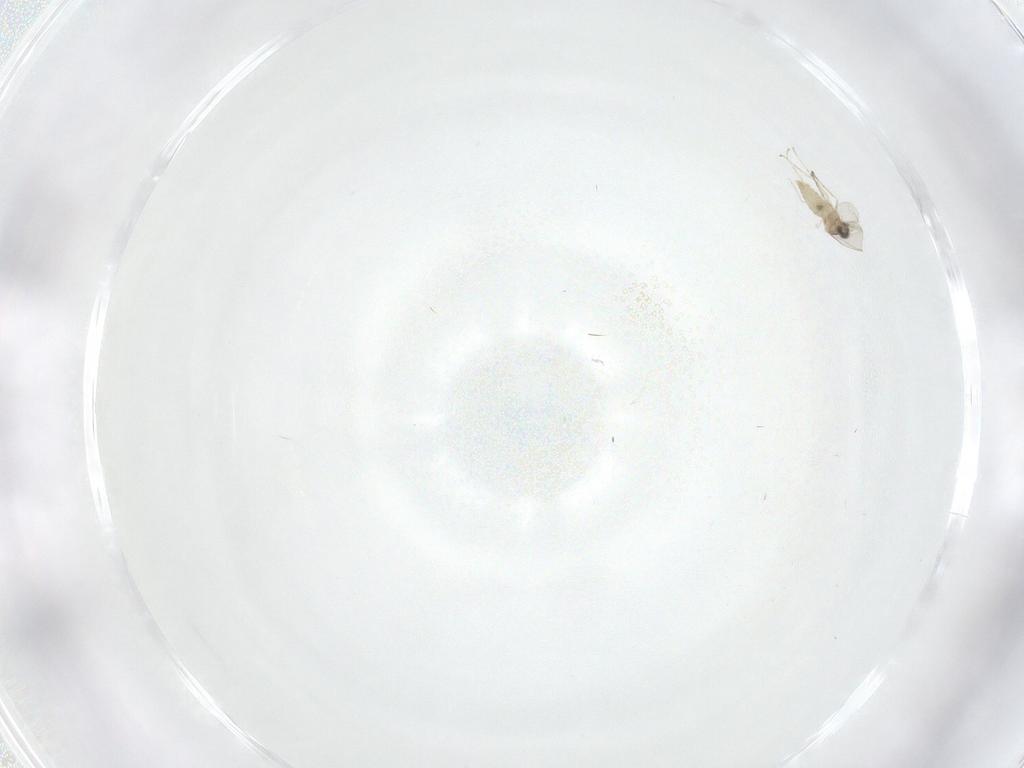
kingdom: Animalia
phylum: Arthropoda
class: Insecta
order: Diptera
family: Cecidomyiidae
